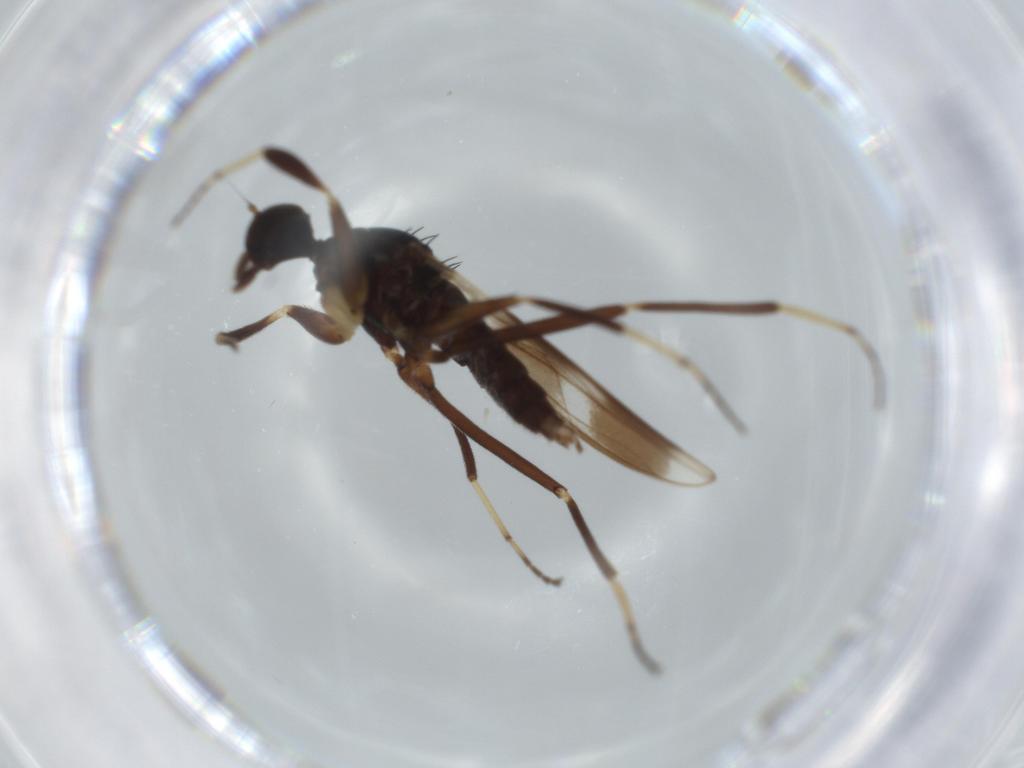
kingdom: Animalia
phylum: Arthropoda
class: Insecta
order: Diptera
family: Hybotidae
